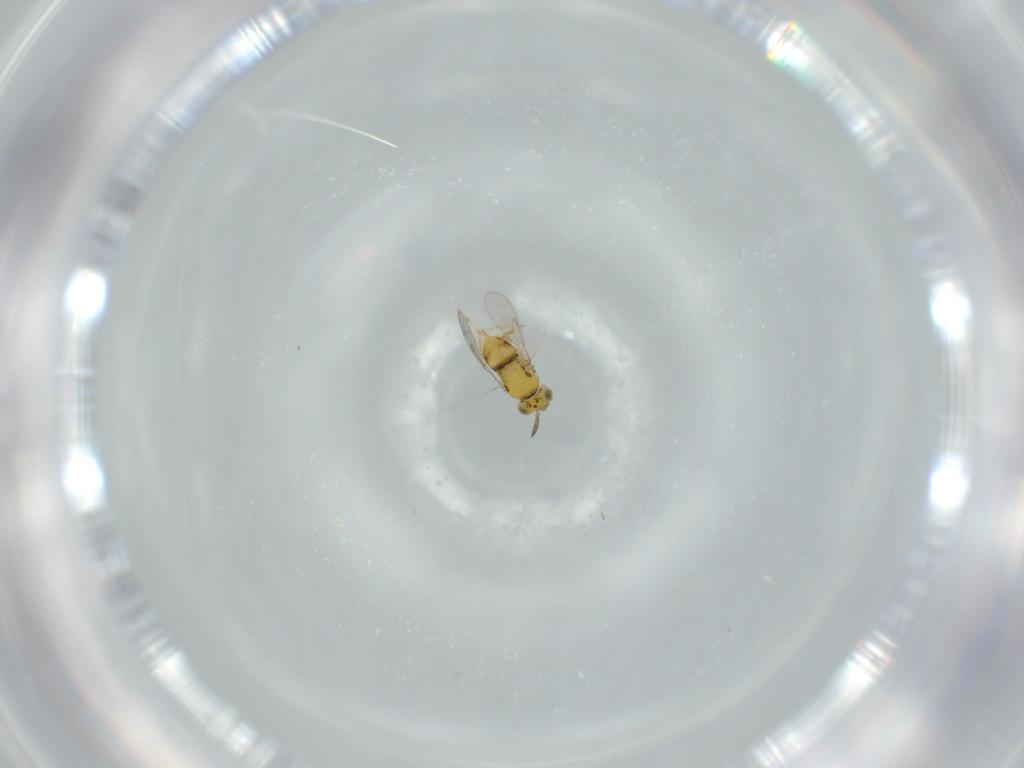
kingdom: Animalia
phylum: Arthropoda
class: Insecta
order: Hymenoptera
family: Aphelinidae
